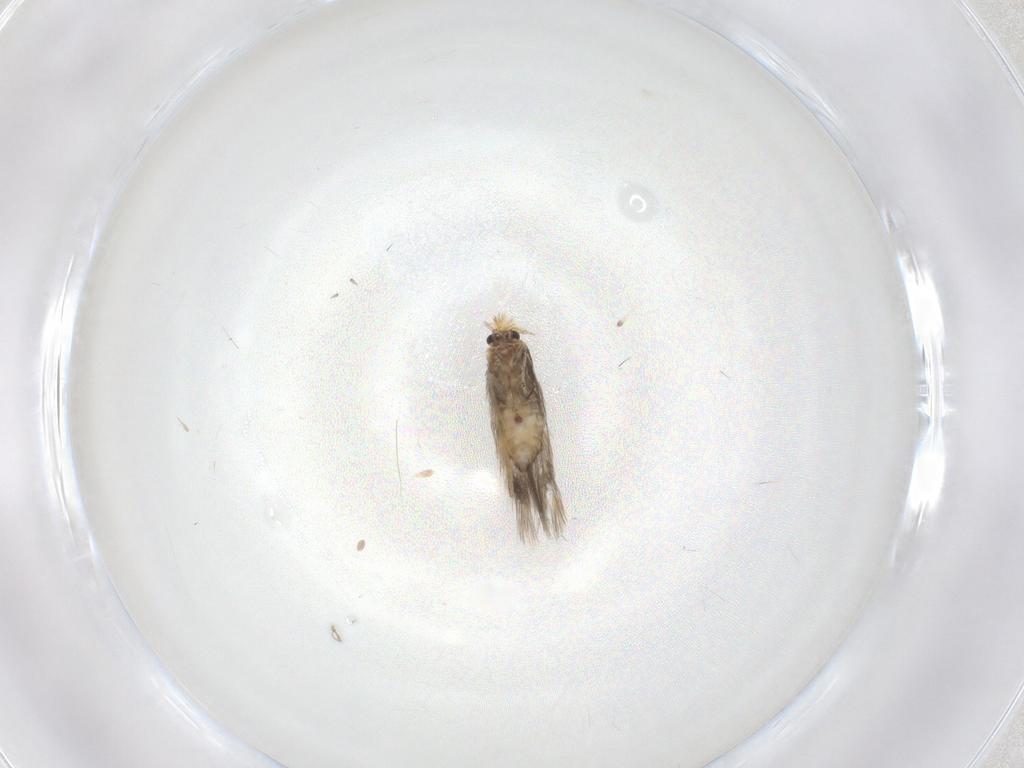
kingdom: Animalia
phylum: Arthropoda
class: Insecta
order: Lepidoptera
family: Nepticulidae
